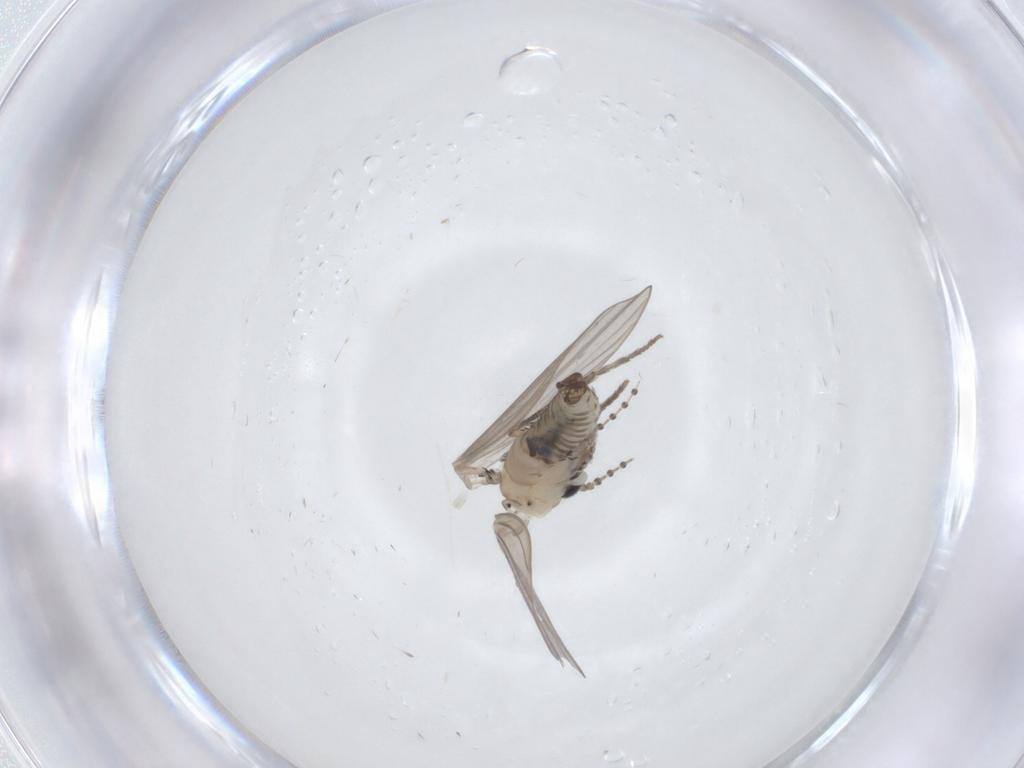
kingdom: Animalia
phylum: Arthropoda
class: Insecta
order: Diptera
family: Psychodidae
